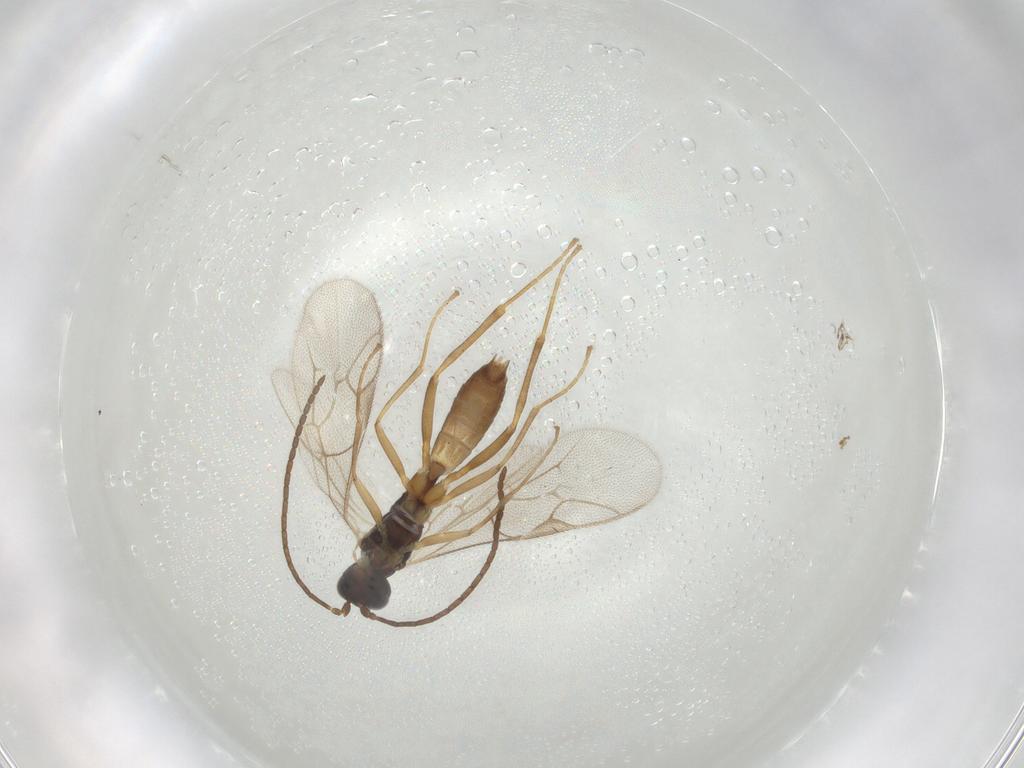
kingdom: Animalia
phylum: Arthropoda
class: Insecta
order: Hymenoptera
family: Ichneumonidae
